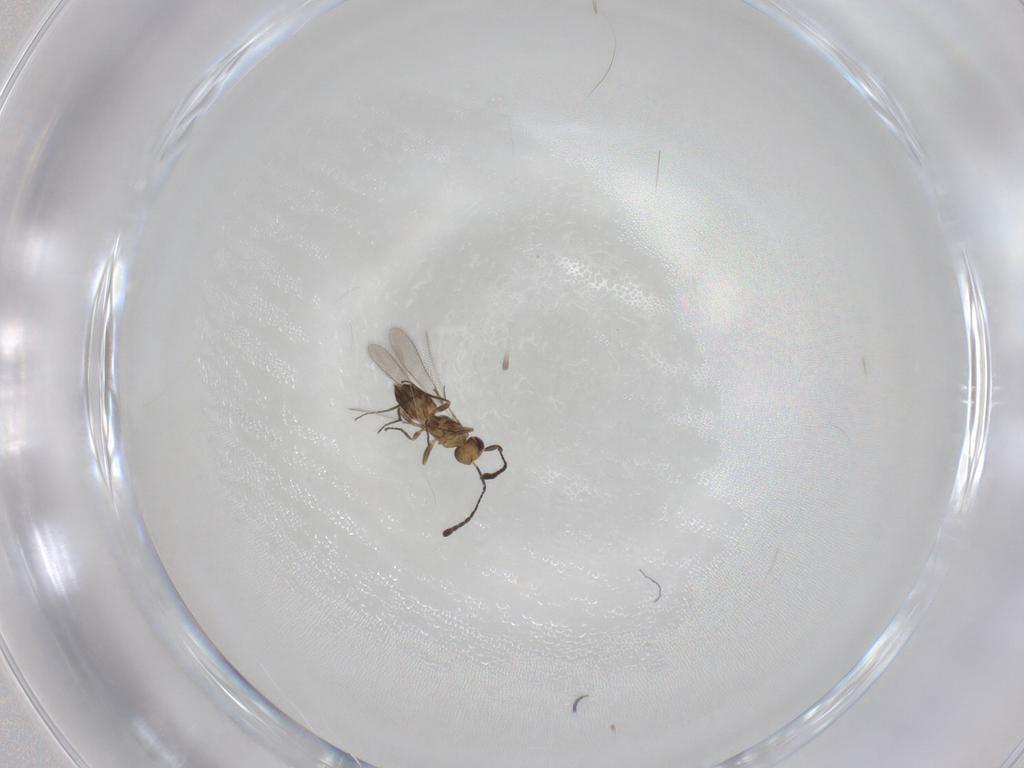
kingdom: Animalia
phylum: Arthropoda
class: Insecta
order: Hymenoptera
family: Mymaridae
